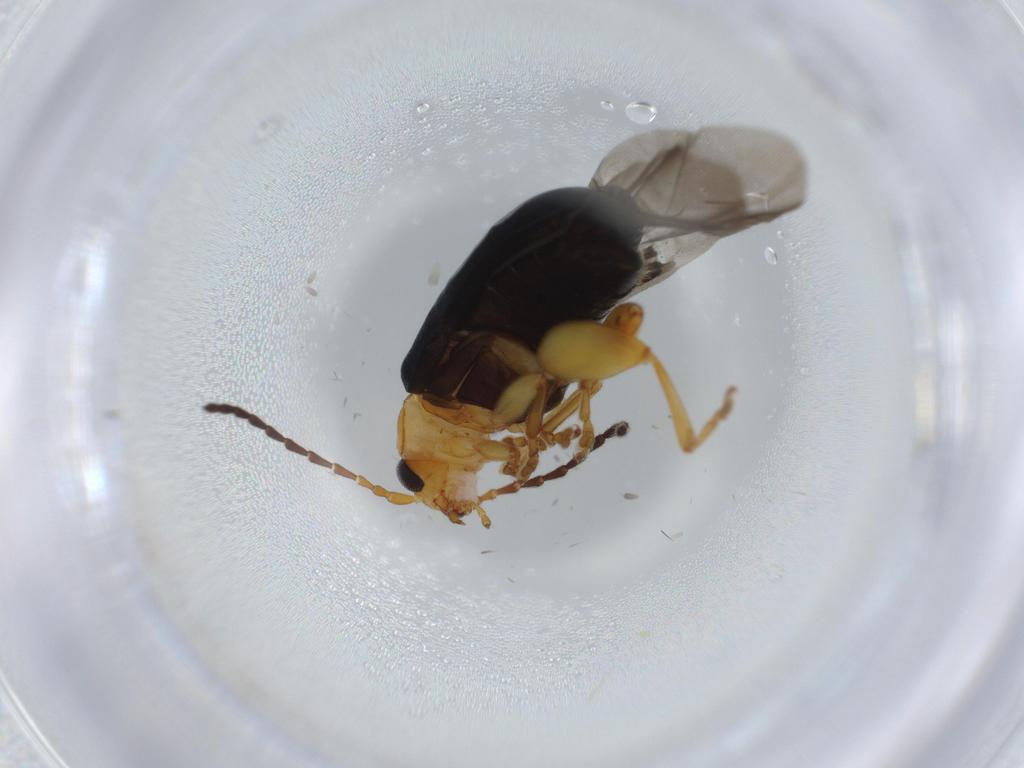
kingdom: Animalia
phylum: Arthropoda
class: Insecta
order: Coleoptera
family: Chrysomelidae
